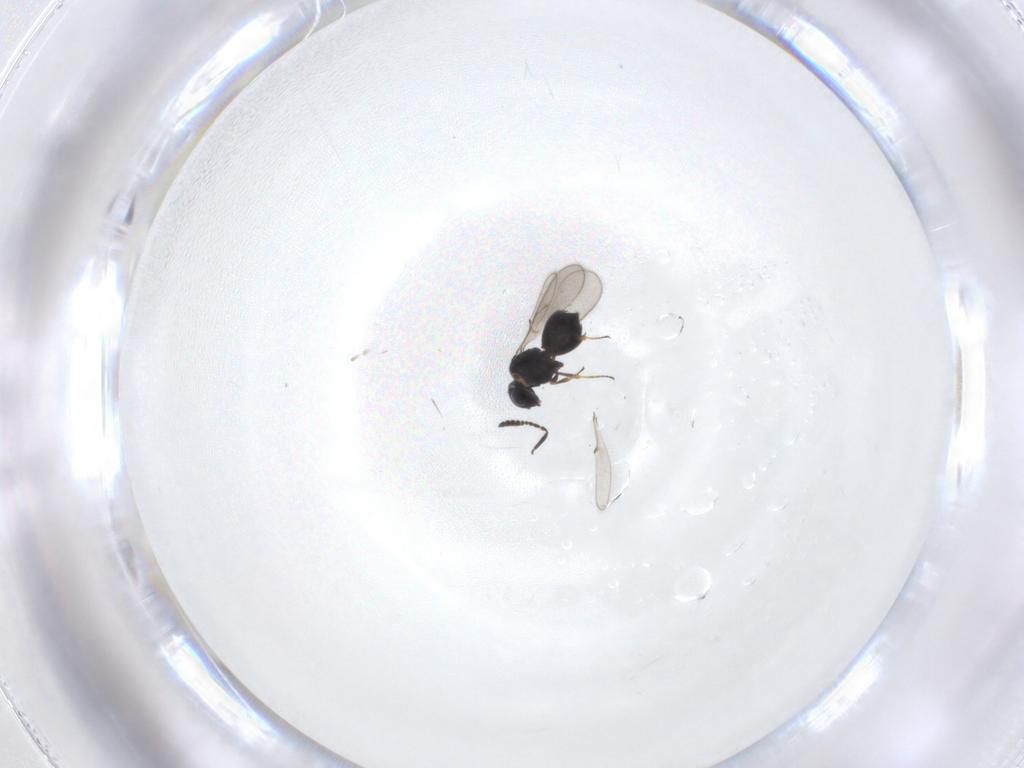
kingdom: Animalia
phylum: Arthropoda
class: Insecta
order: Hymenoptera
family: Scelionidae
